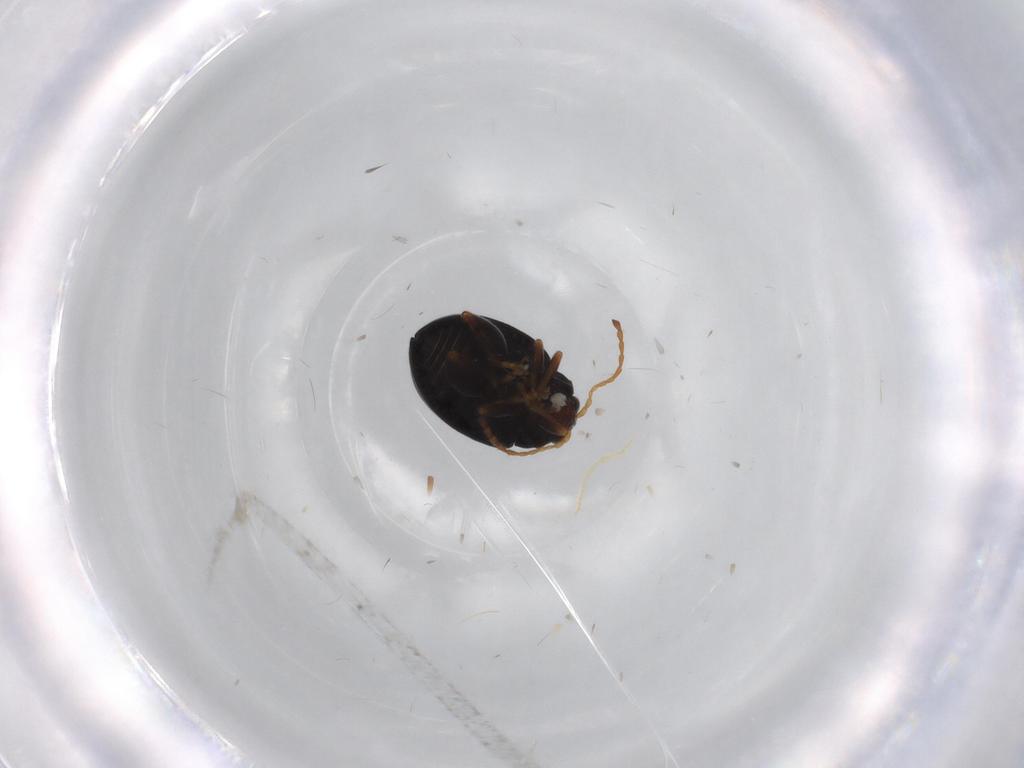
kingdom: Animalia
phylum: Arthropoda
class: Insecta
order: Coleoptera
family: Chrysomelidae
